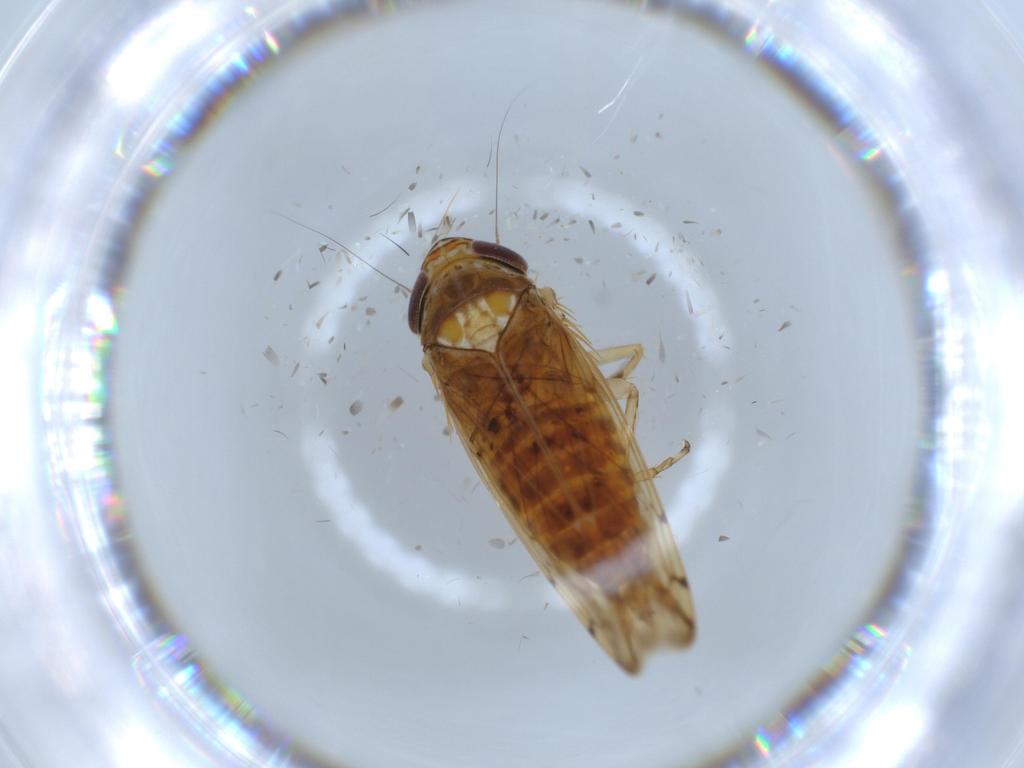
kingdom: Animalia
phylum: Arthropoda
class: Insecta
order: Hemiptera
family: Cicadellidae
